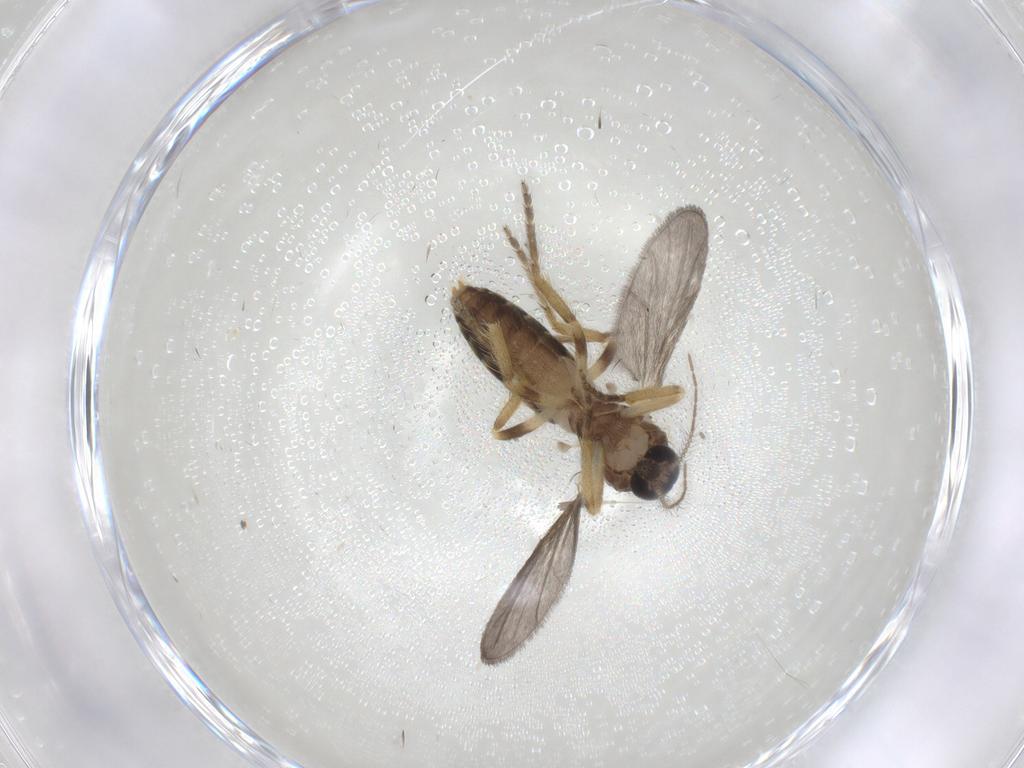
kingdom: Animalia
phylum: Arthropoda
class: Insecta
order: Diptera
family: Ceratopogonidae
